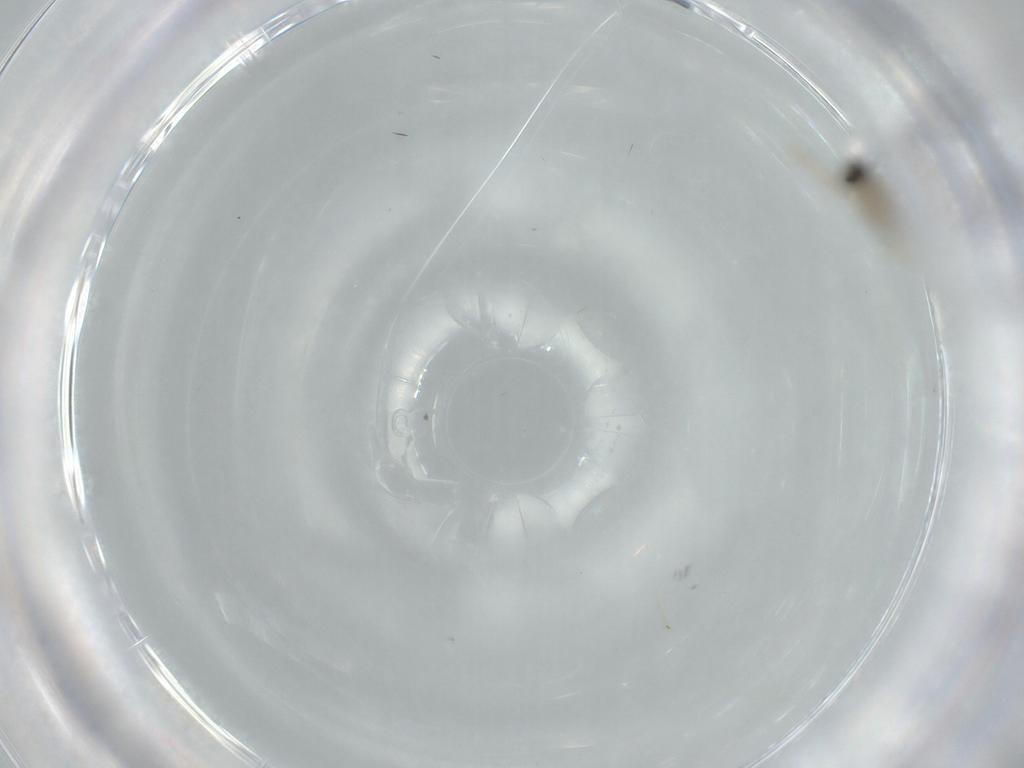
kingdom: Animalia
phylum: Arthropoda
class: Insecta
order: Diptera
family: Cecidomyiidae
